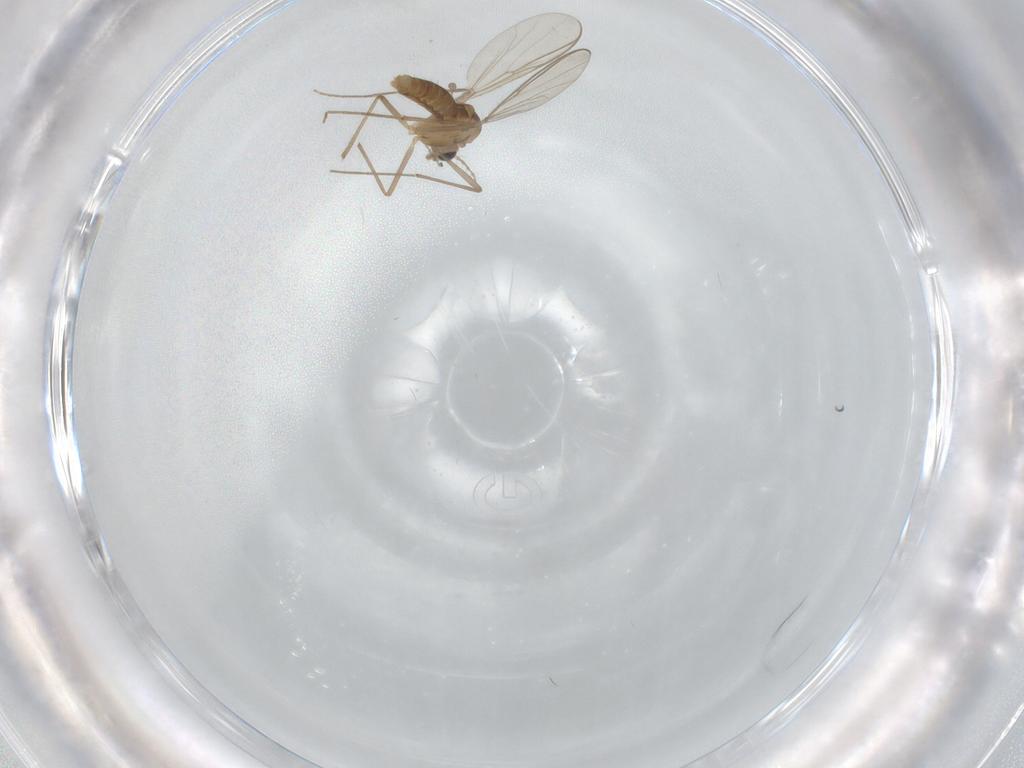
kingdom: Animalia
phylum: Arthropoda
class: Insecta
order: Diptera
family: Chironomidae
